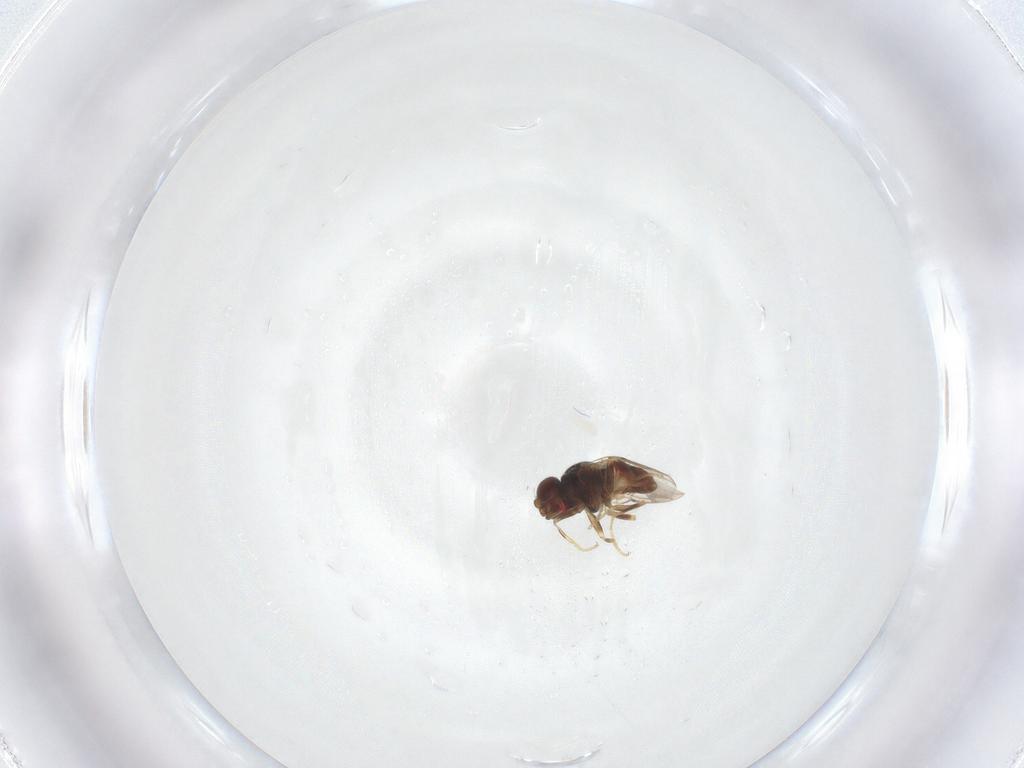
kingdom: Animalia
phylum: Arthropoda
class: Insecta
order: Diptera
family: Chloropidae
